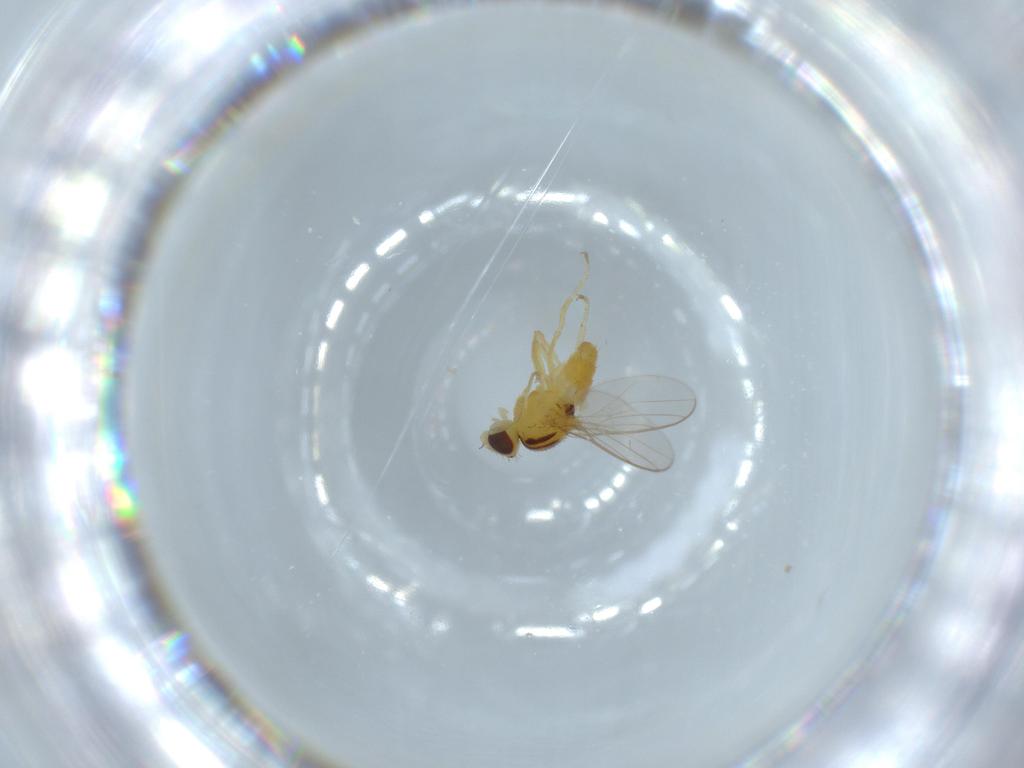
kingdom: Animalia
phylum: Arthropoda
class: Insecta
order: Diptera
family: Chloropidae
